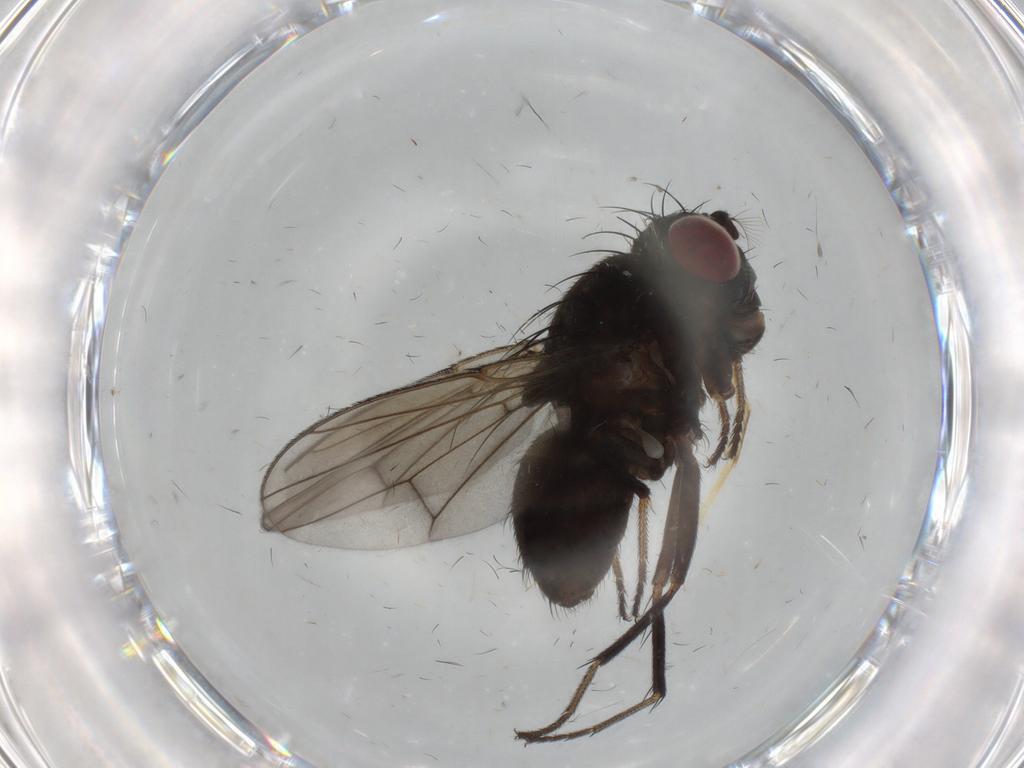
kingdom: Animalia
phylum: Arthropoda
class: Insecta
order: Diptera
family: Ephydridae
